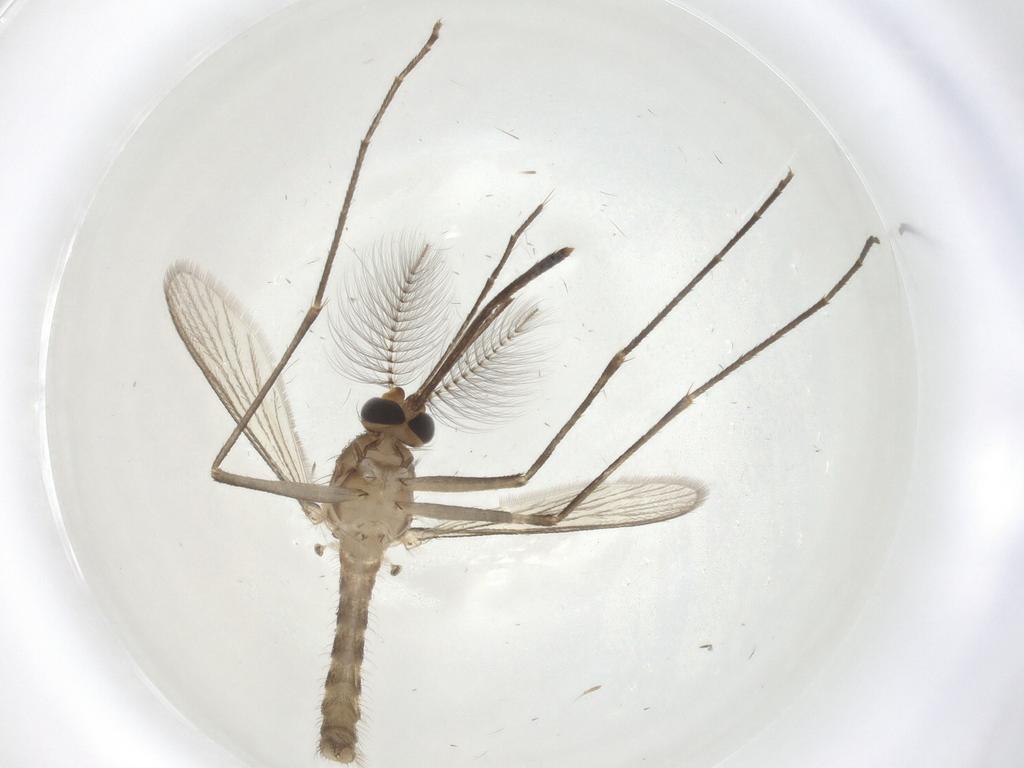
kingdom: Animalia
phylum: Arthropoda
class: Insecta
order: Diptera
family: Culicidae
